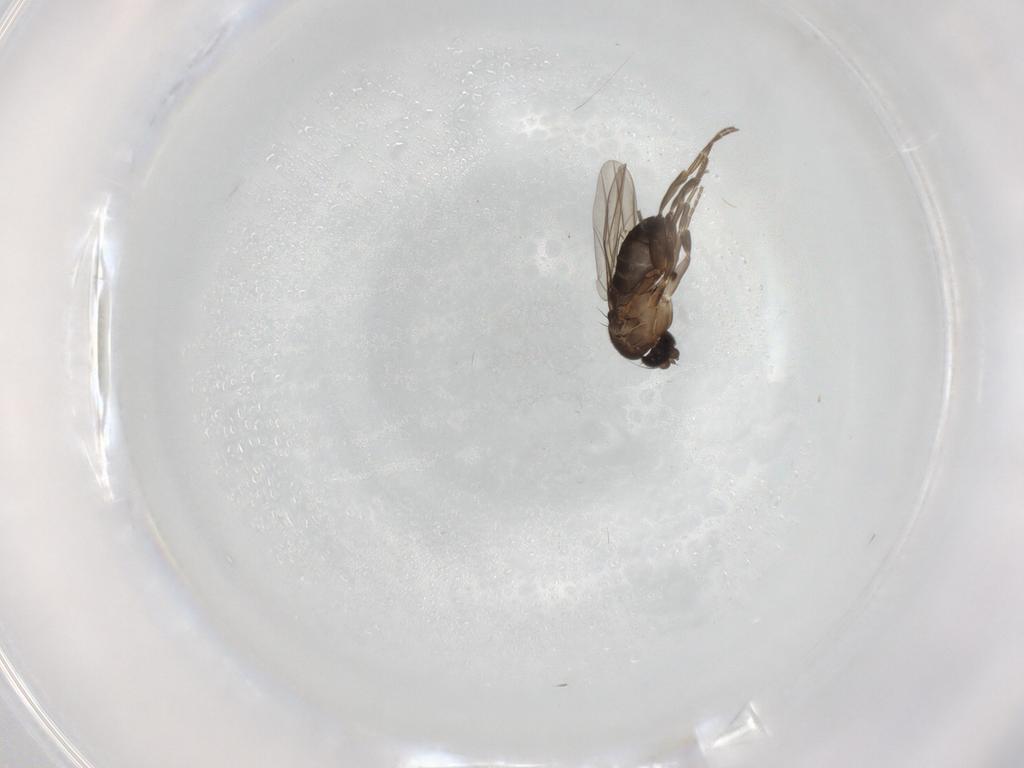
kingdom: Animalia
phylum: Arthropoda
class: Insecta
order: Diptera
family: Phoridae
